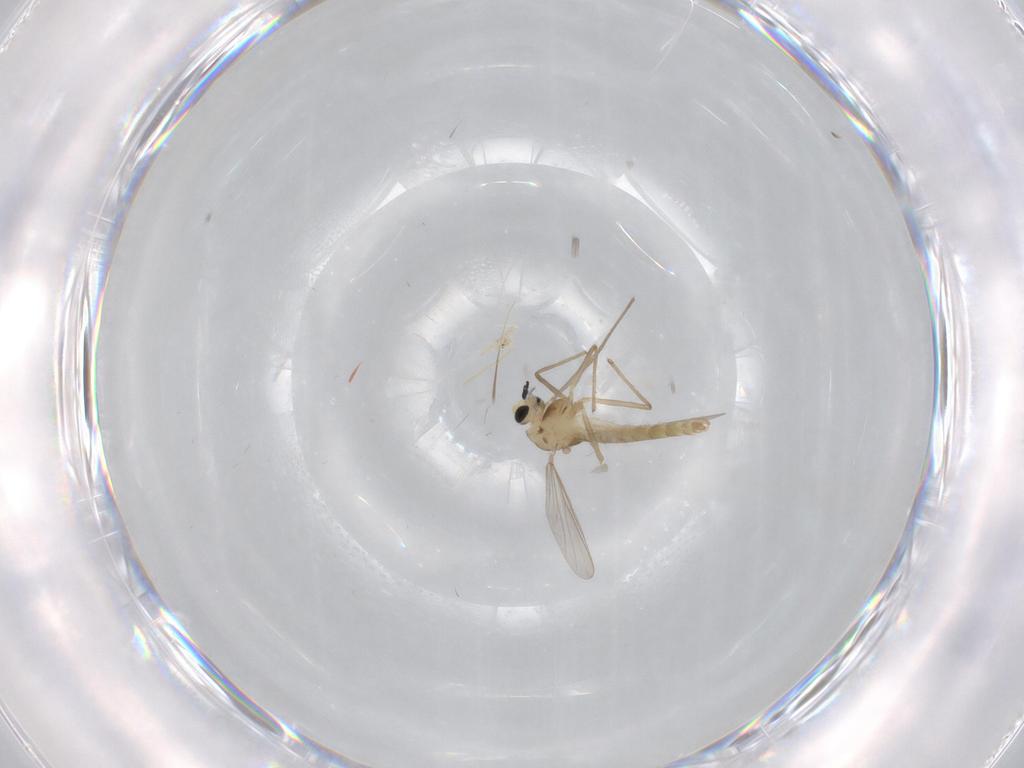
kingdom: Animalia
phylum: Arthropoda
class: Insecta
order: Diptera
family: Chironomidae
